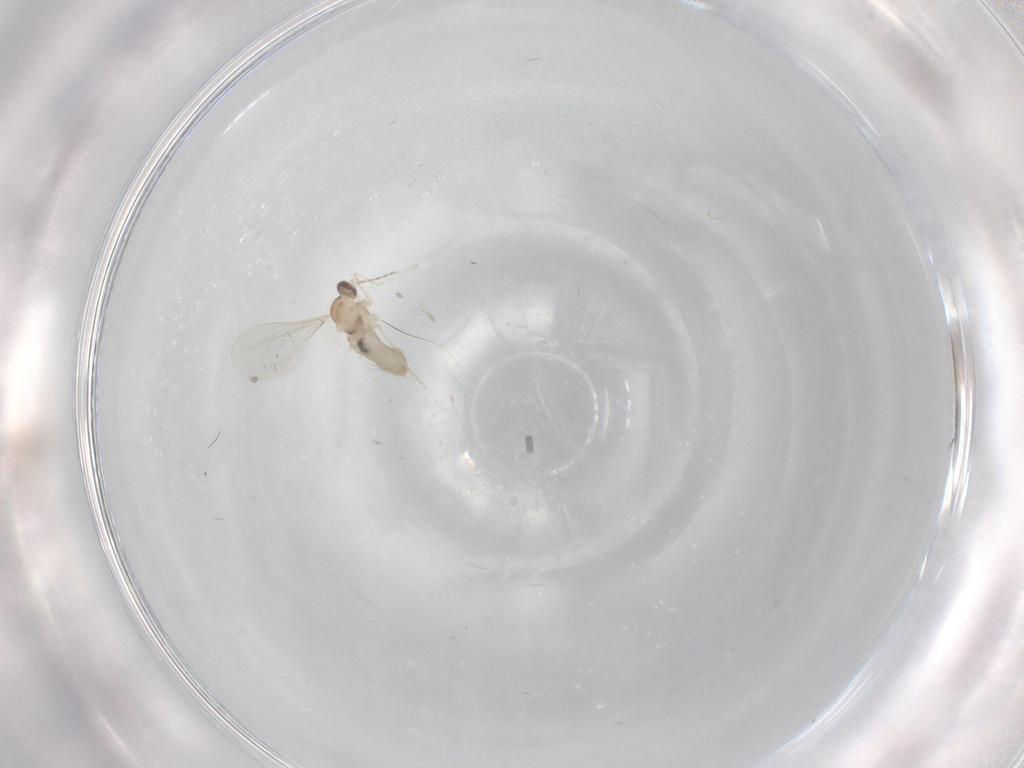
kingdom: Animalia
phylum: Arthropoda
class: Insecta
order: Diptera
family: Cecidomyiidae
